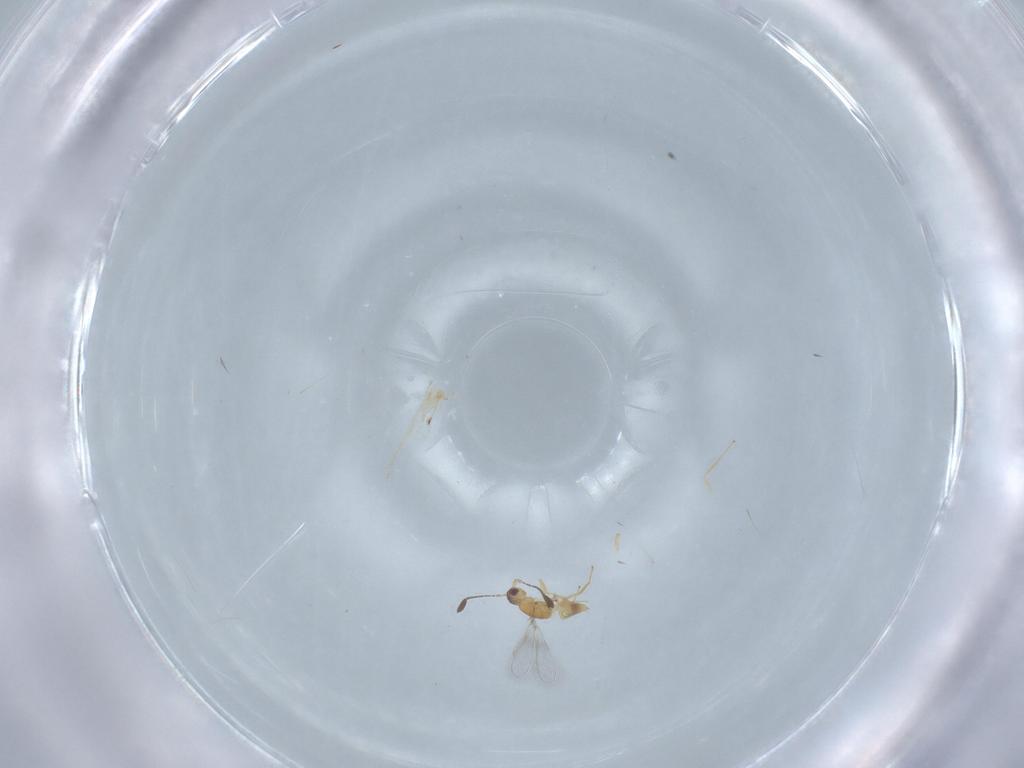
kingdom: Animalia
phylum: Arthropoda
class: Insecta
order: Hymenoptera
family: Mymaridae
